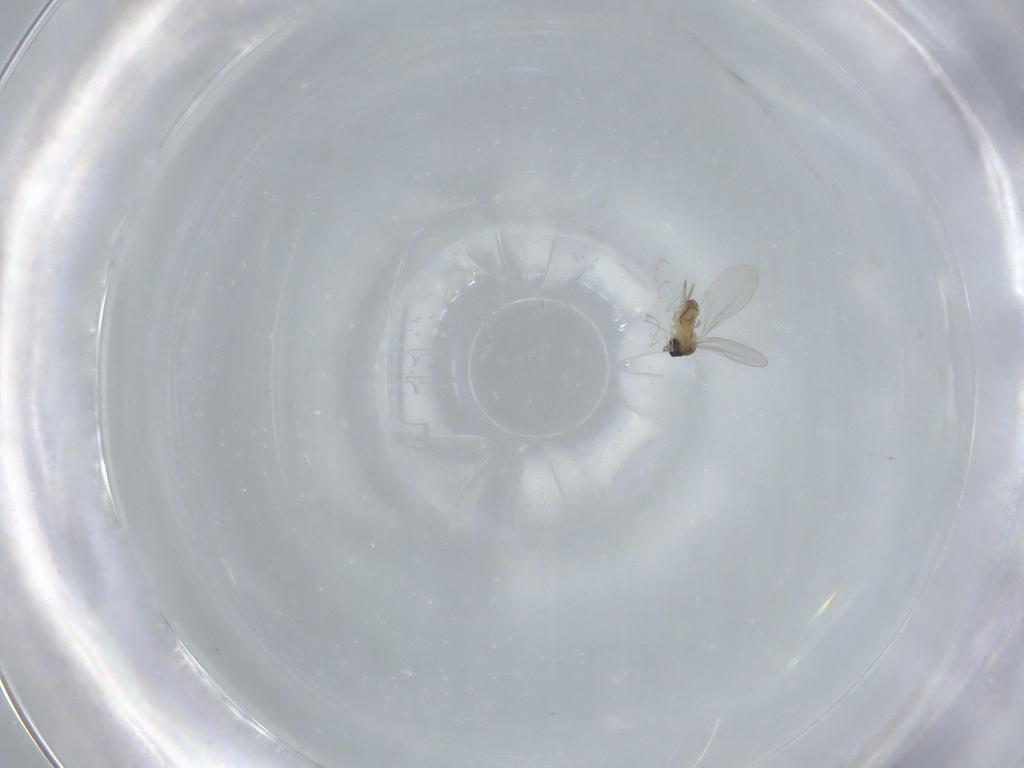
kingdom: Animalia
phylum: Arthropoda
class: Insecta
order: Diptera
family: Cecidomyiidae
